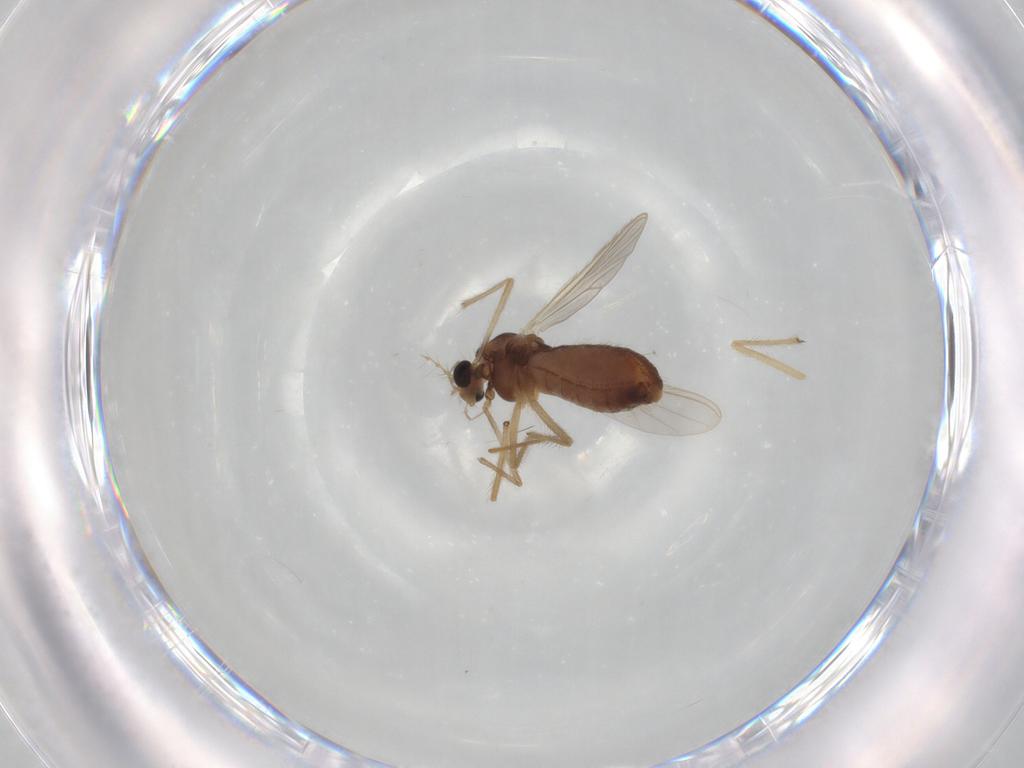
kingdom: Animalia
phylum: Arthropoda
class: Insecta
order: Diptera
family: Chironomidae
